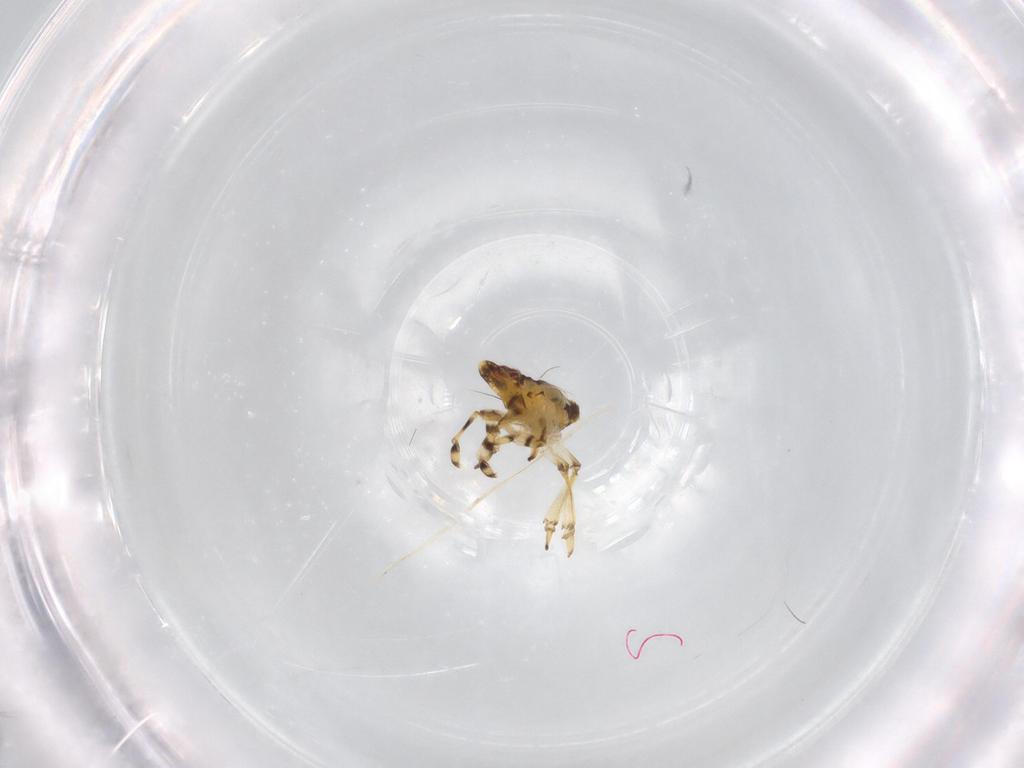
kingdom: Animalia
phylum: Arthropoda
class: Insecta
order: Hemiptera
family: Issidae
